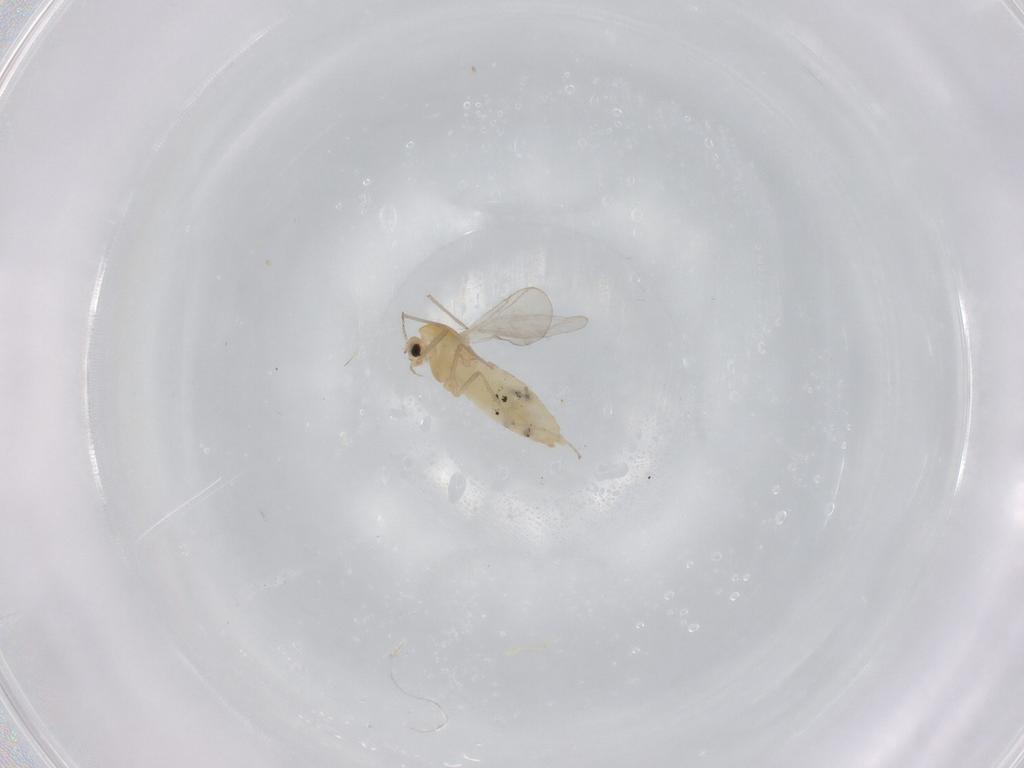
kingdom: Animalia
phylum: Arthropoda
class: Insecta
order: Diptera
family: Chironomidae
